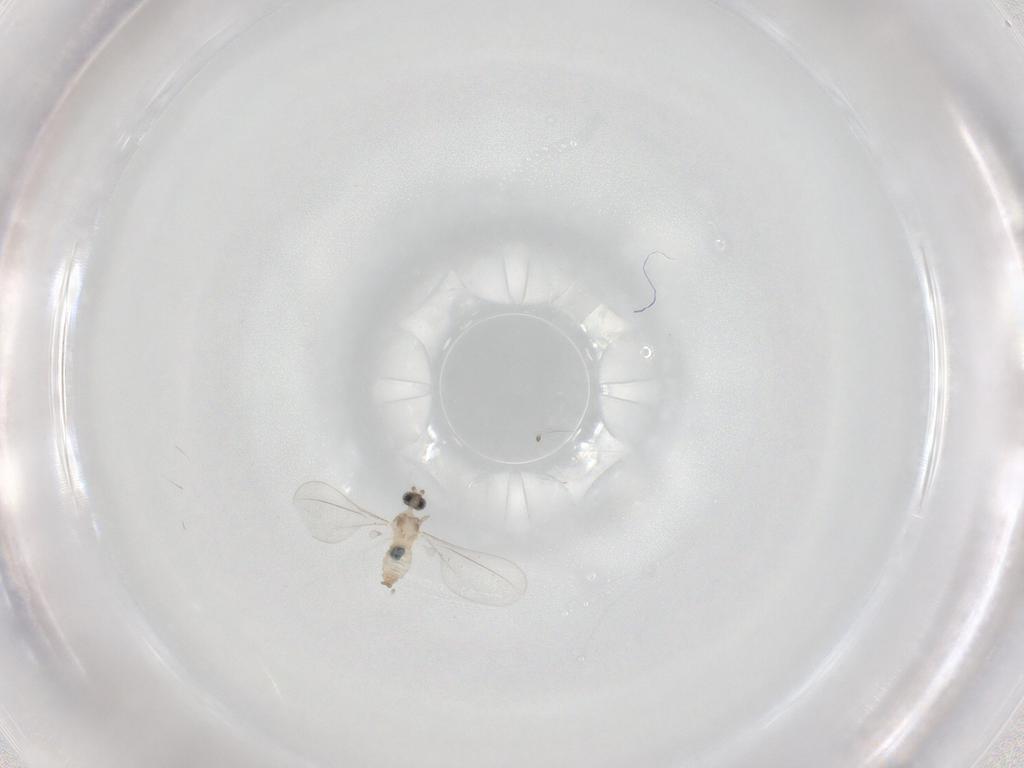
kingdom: Animalia
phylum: Arthropoda
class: Insecta
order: Diptera
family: Cecidomyiidae
